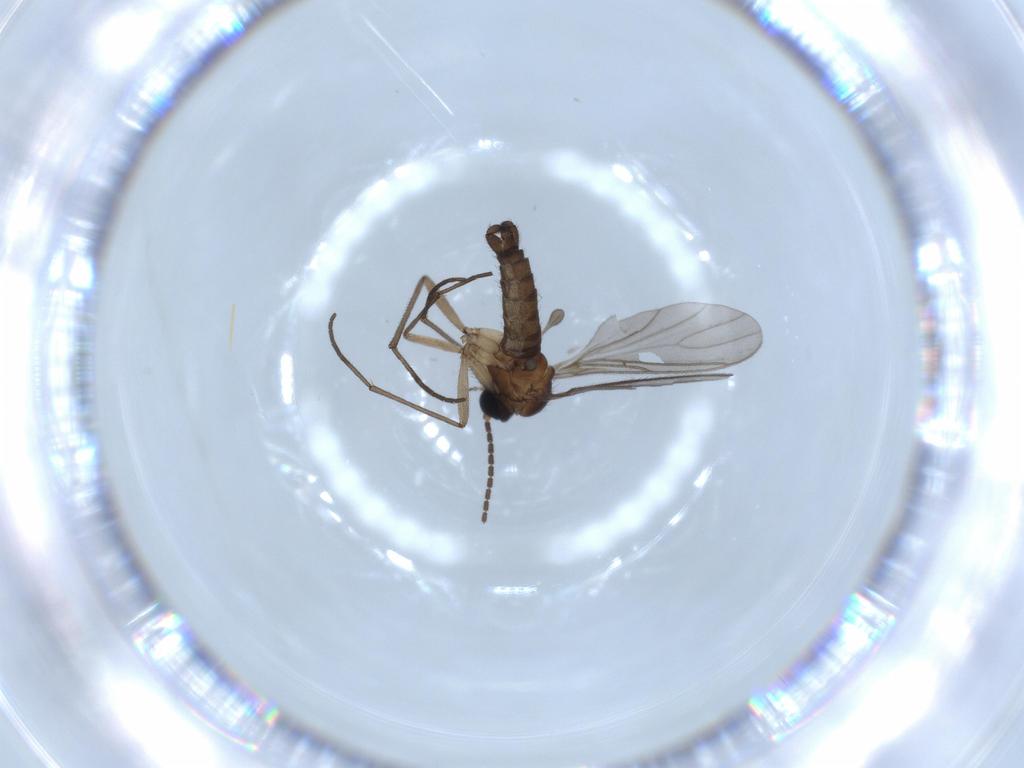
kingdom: Animalia
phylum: Arthropoda
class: Insecta
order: Diptera
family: Sciaridae
